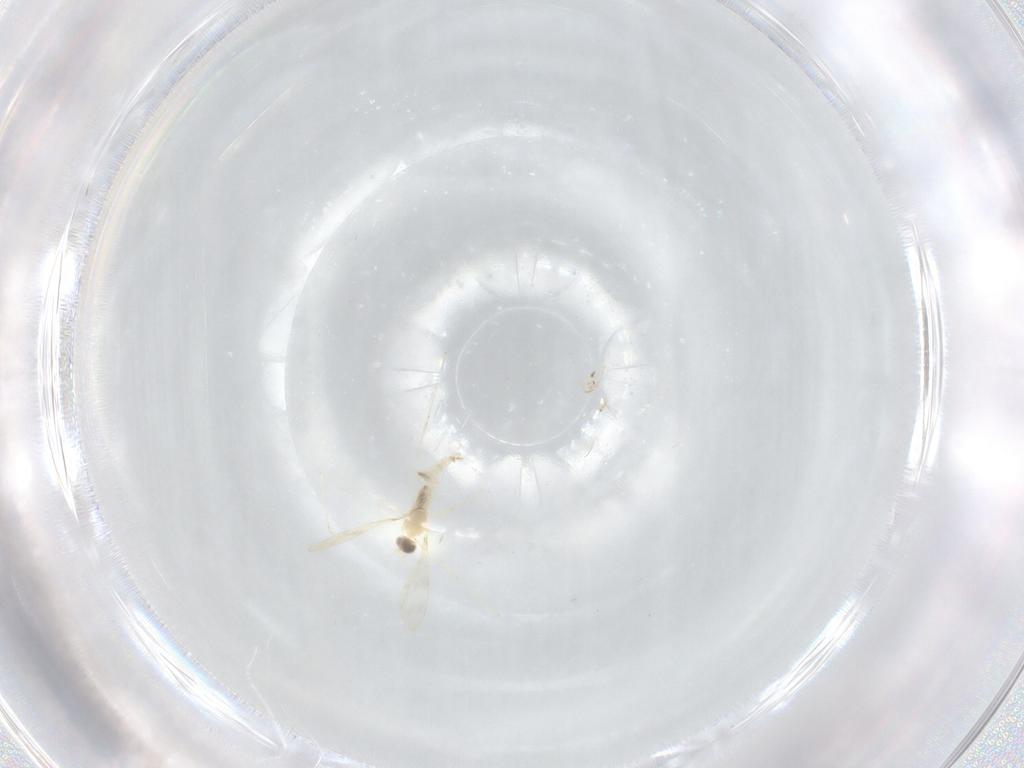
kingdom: Animalia
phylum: Arthropoda
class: Insecta
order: Diptera
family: Cecidomyiidae
